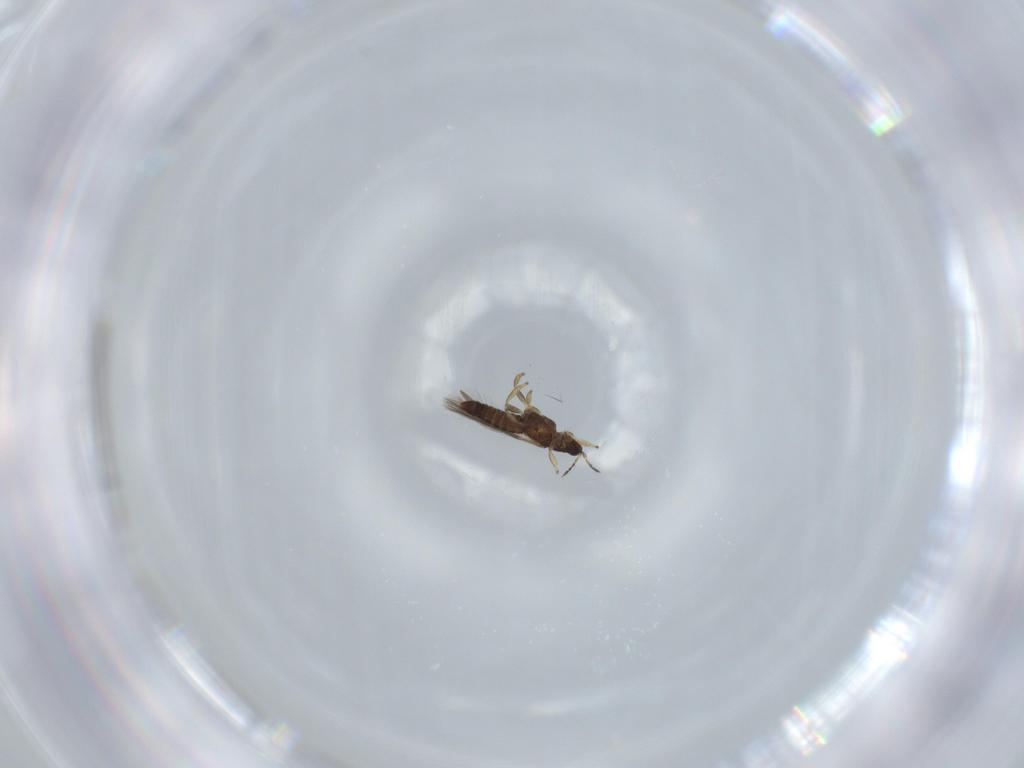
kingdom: Animalia
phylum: Arthropoda
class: Insecta
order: Thysanoptera
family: Thripidae
